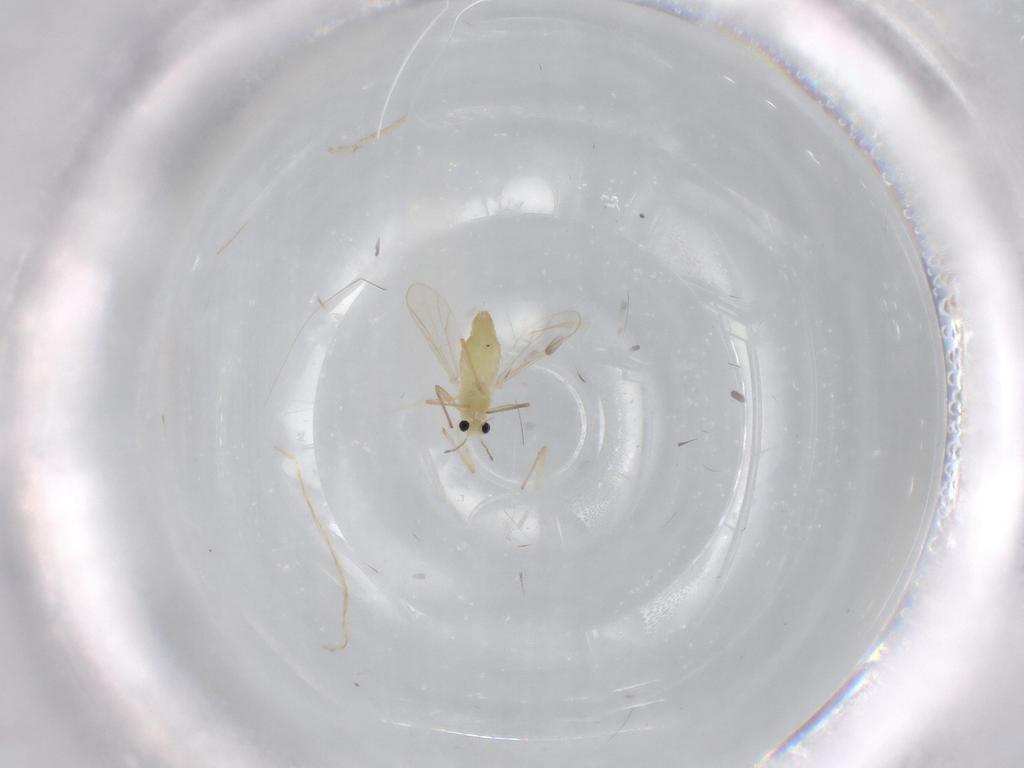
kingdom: Animalia
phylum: Arthropoda
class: Insecta
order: Diptera
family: Chironomidae
